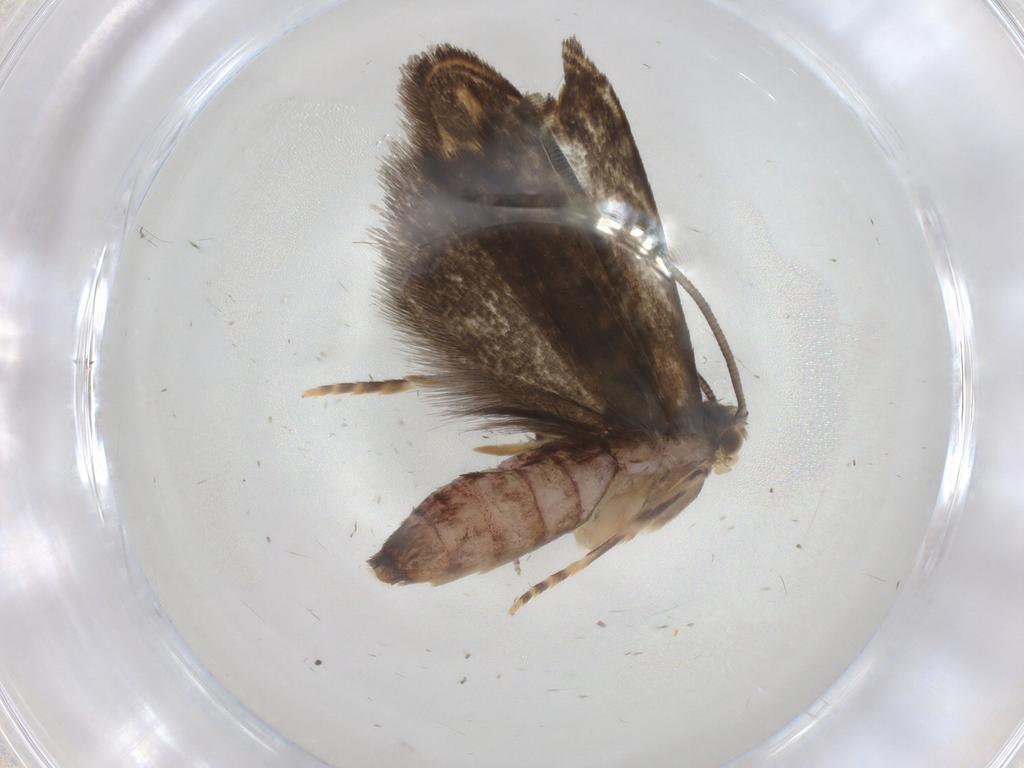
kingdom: Animalia
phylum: Arthropoda
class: Insecta
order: Lepidoptera
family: Dryadaulidae
